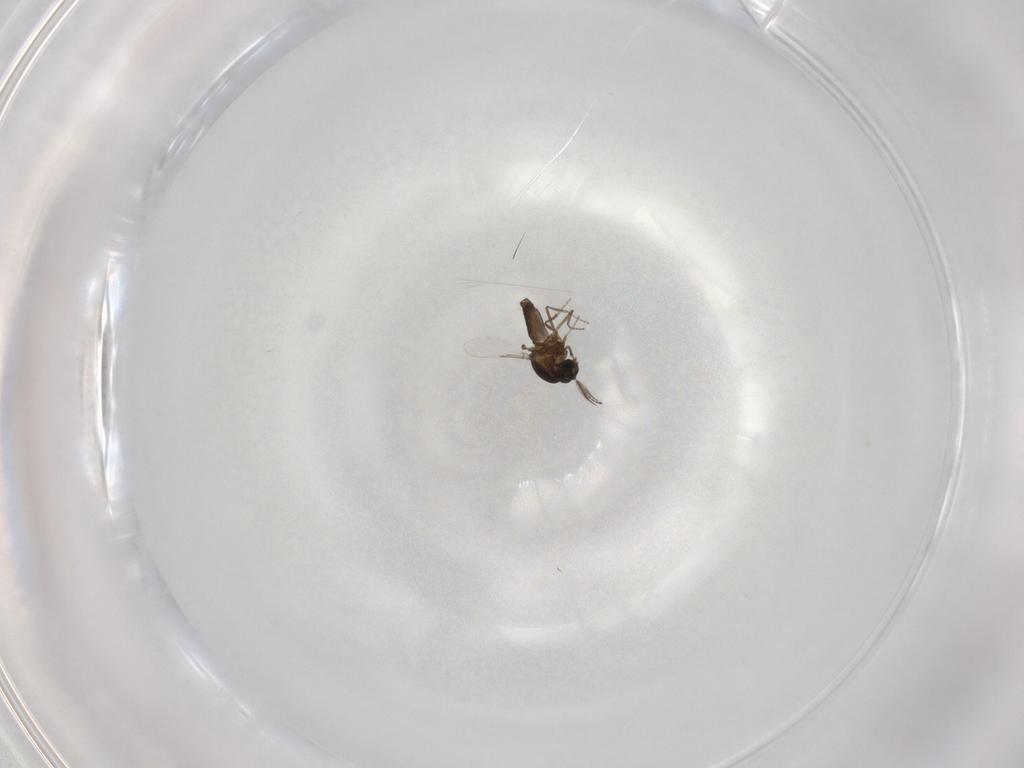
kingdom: Animalia
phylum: Arthropoda
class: Insecta
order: Diptera
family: Ceratopogonidae
